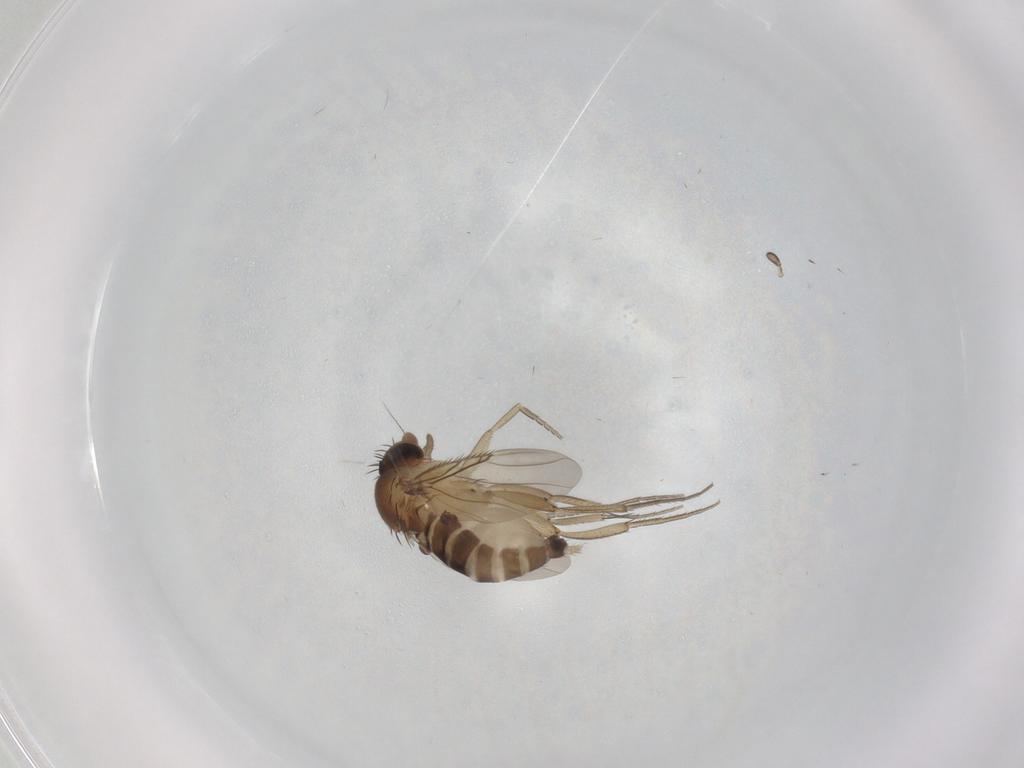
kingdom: Animalia
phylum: Arthropoda
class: Insecta
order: Diptera
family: Phoridae
